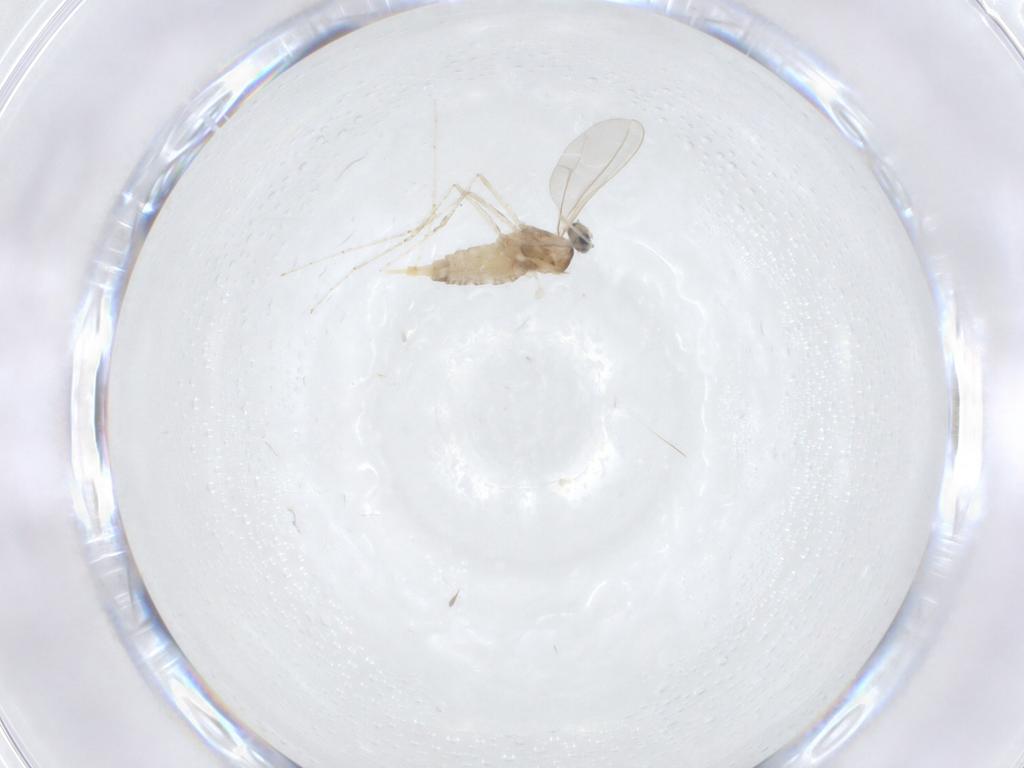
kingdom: Animalia
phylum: Arthropoda
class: Insecta
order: Diptera
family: Cecidomyiidae
